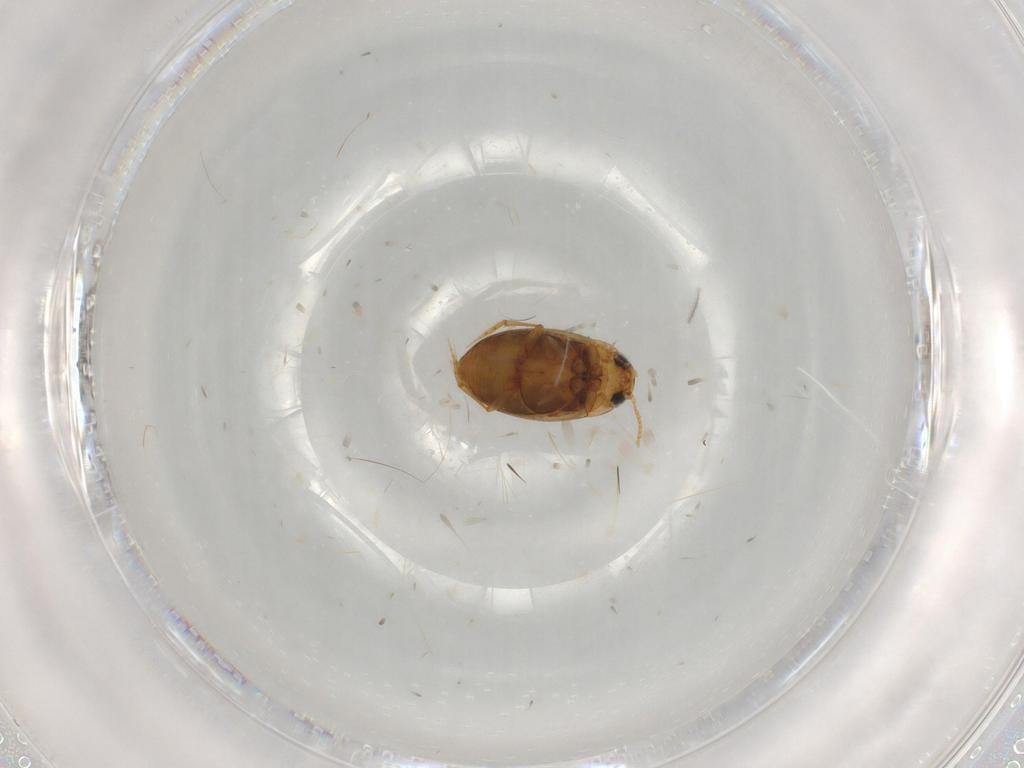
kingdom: Animalia
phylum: Arthropoda
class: Insecta
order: Coleoptera
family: Dytiscidae
